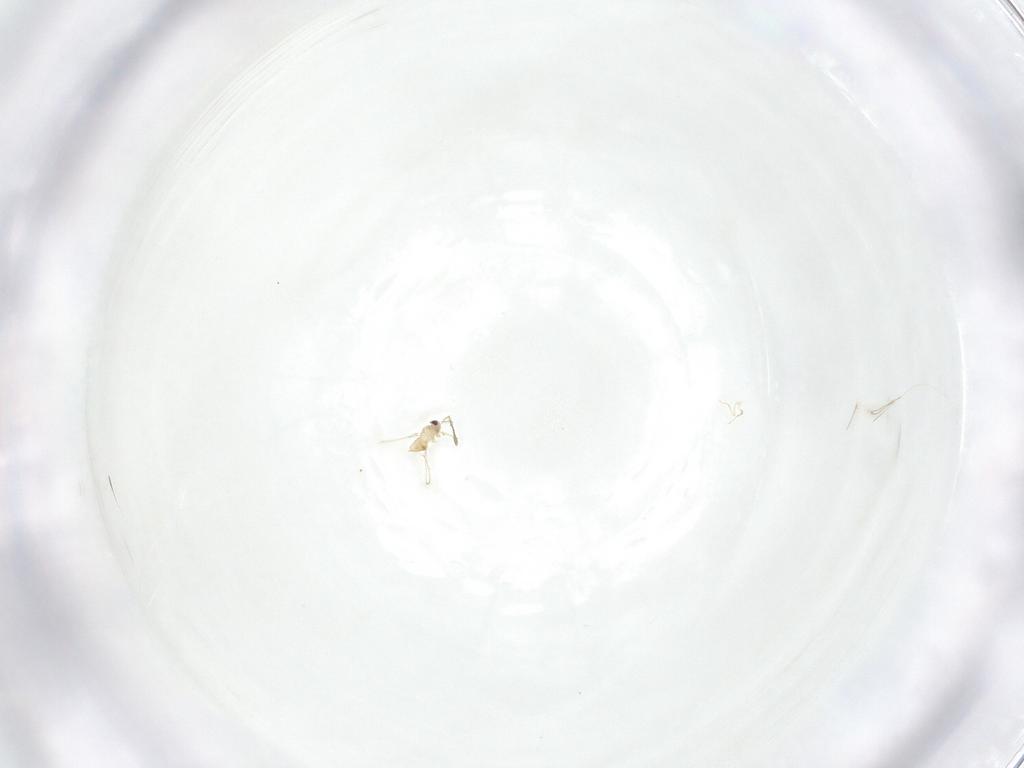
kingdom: Animalia
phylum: Arthropoda
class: Insecta
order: Hymenoptera
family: Mymaridae
